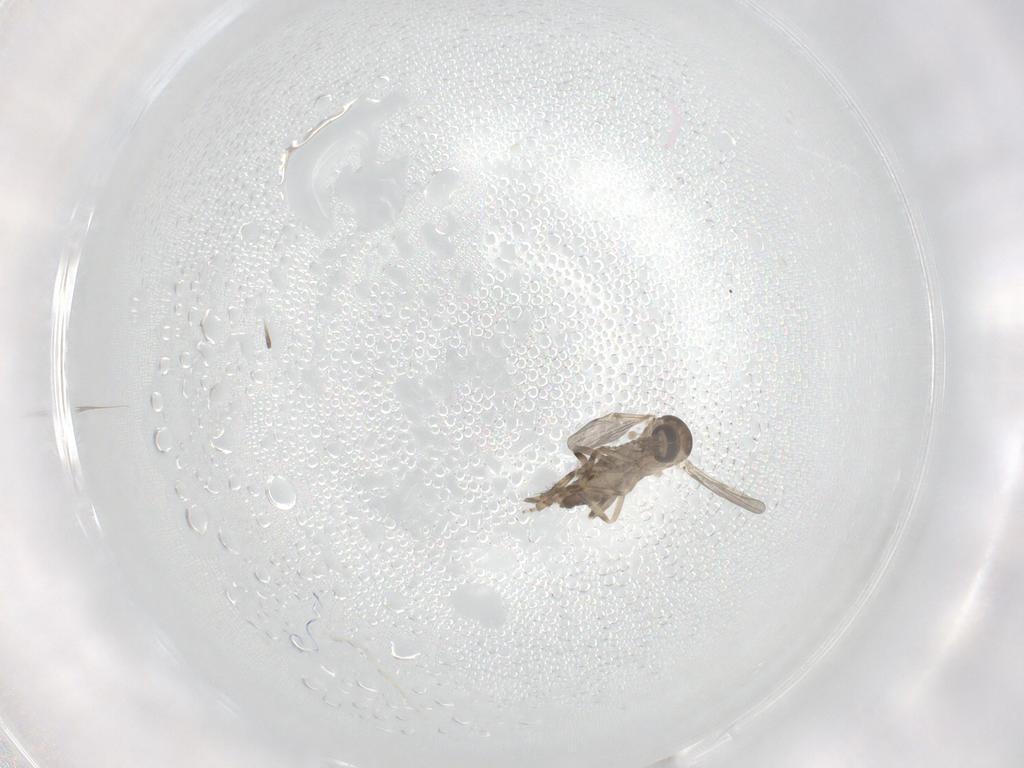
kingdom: Animalia
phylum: Arthropoda
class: Insecta
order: Diptera
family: Ceratopogonidae
